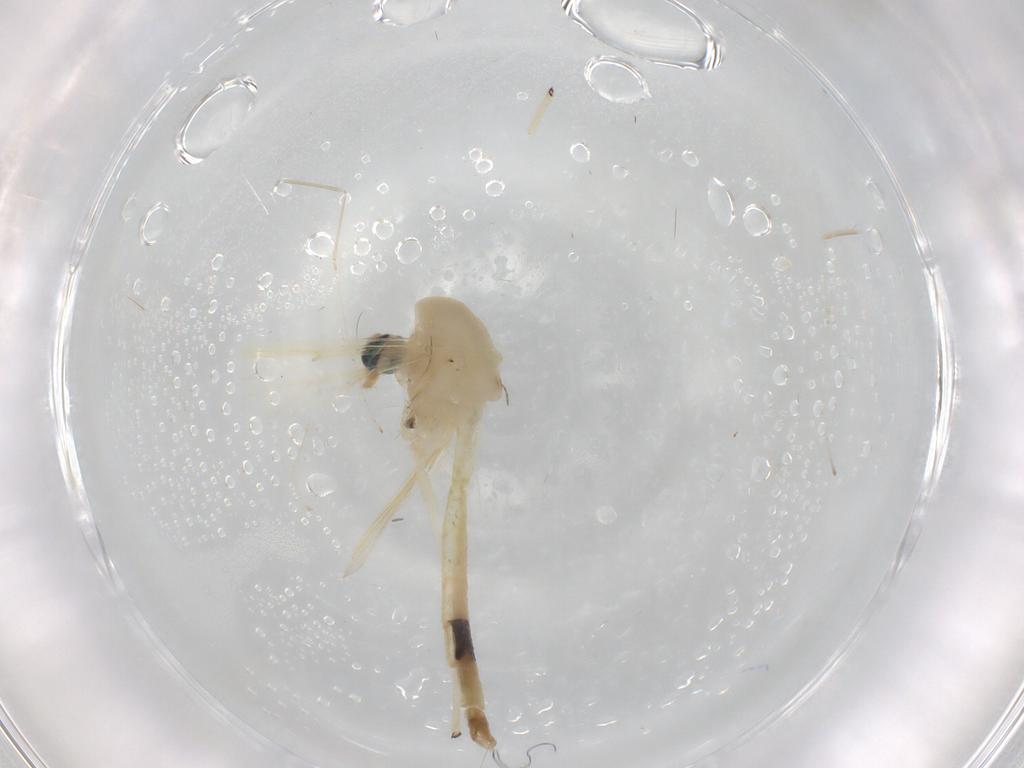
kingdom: Animalia
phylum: Arthropoda
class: Insecta
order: Diptera
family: Chironomidae
